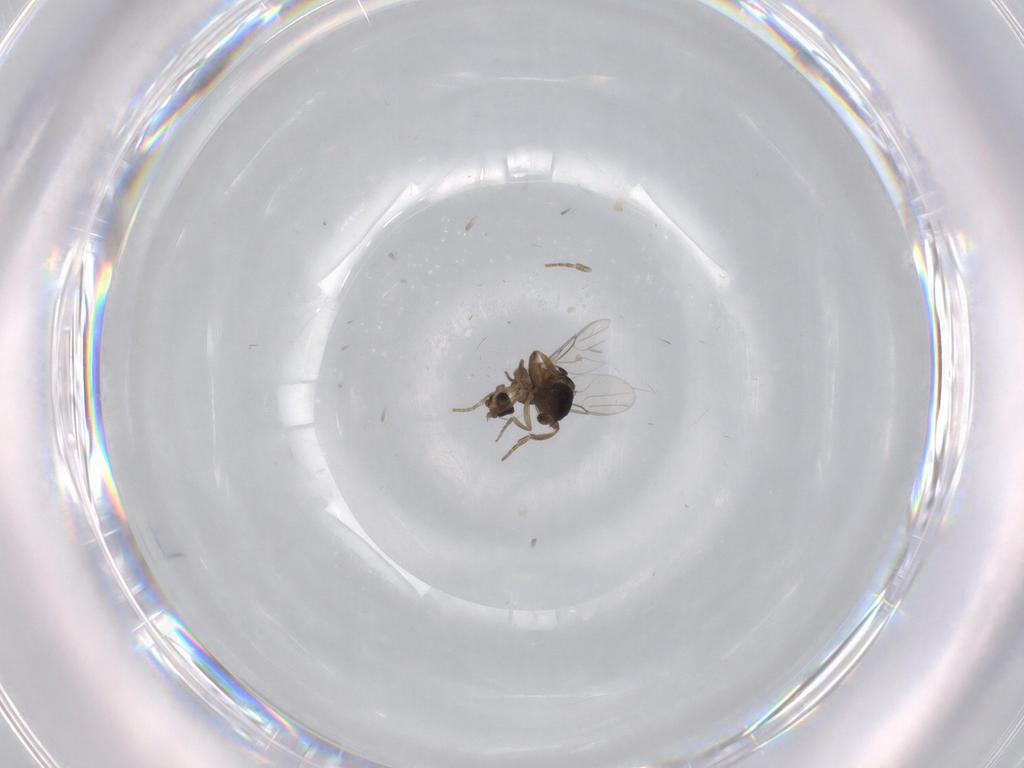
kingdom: Animalia
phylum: Arthropoda
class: Insecta
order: Diptera
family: Phoridae
